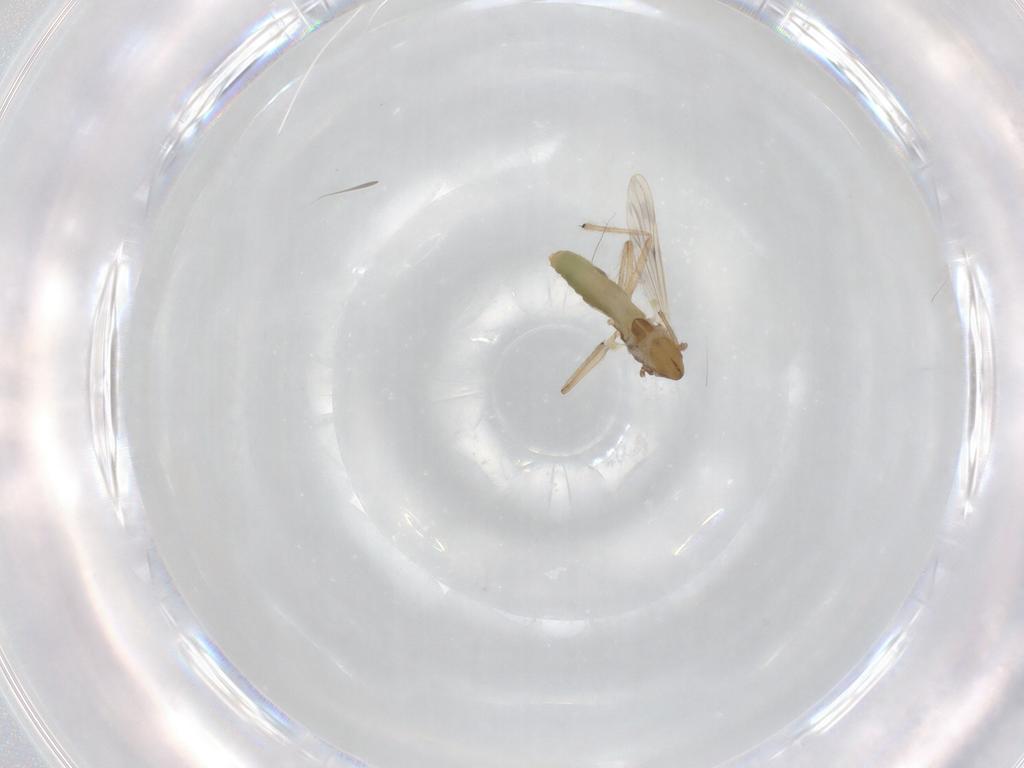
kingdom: Animalia
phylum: Arthropoda
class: Insecta
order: Diptera
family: Chironomidae
